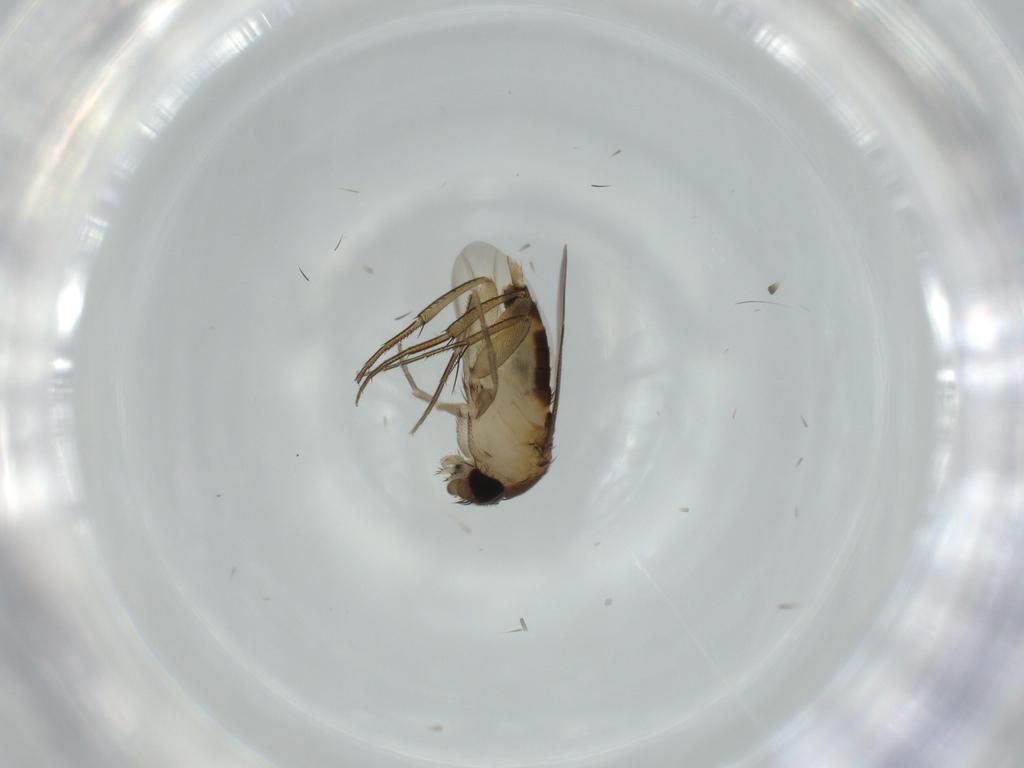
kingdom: Animalia
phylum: Arthropoda
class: Insecta
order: Diptera
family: Phoridae
